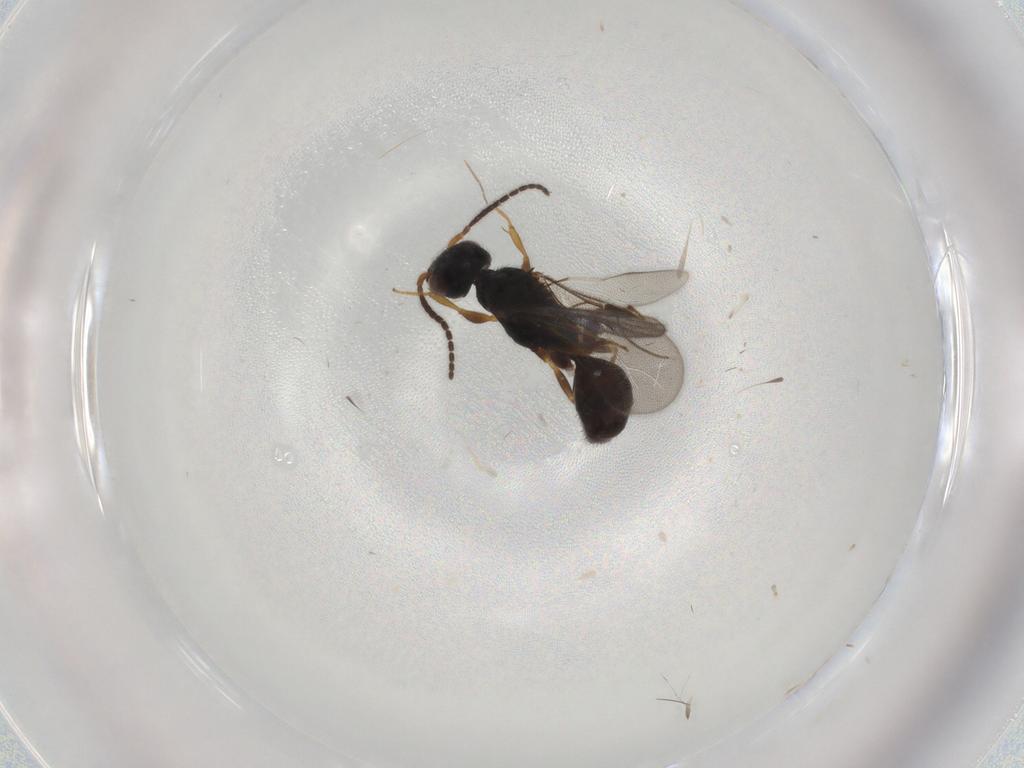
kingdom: Animalia
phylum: Arthropoda
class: Insecta
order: Hymenoptera
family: Bethylidae
